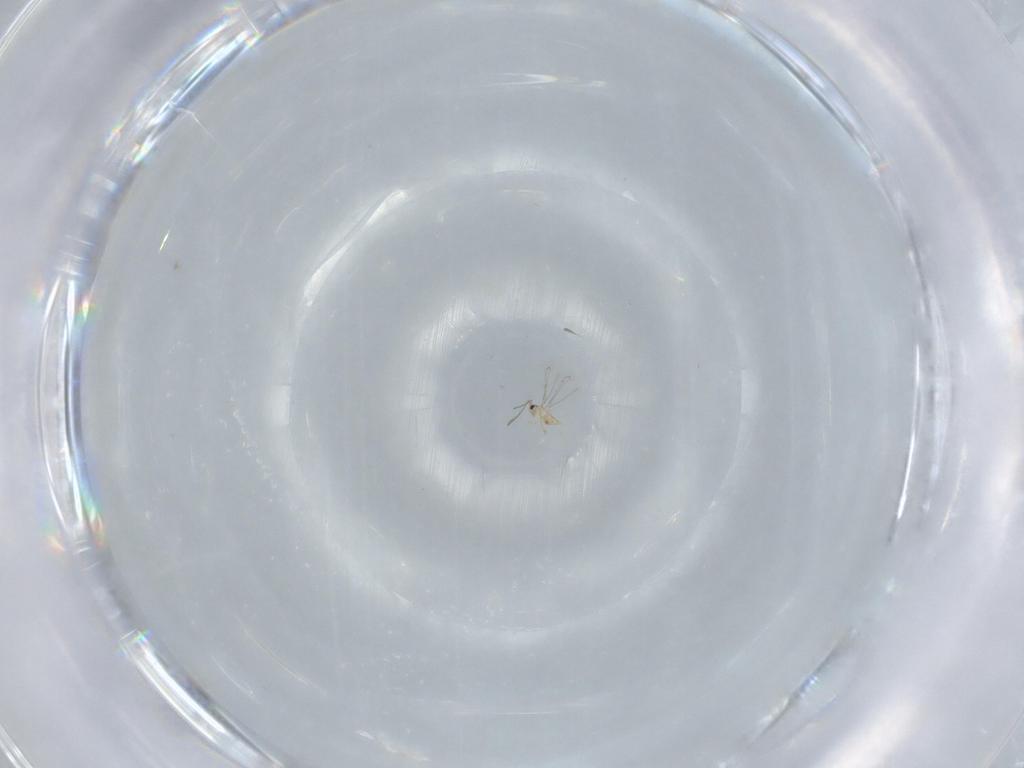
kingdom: Animalia
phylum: Arthropoda
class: Insecta
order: Hymenoptera
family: Mymaridae
